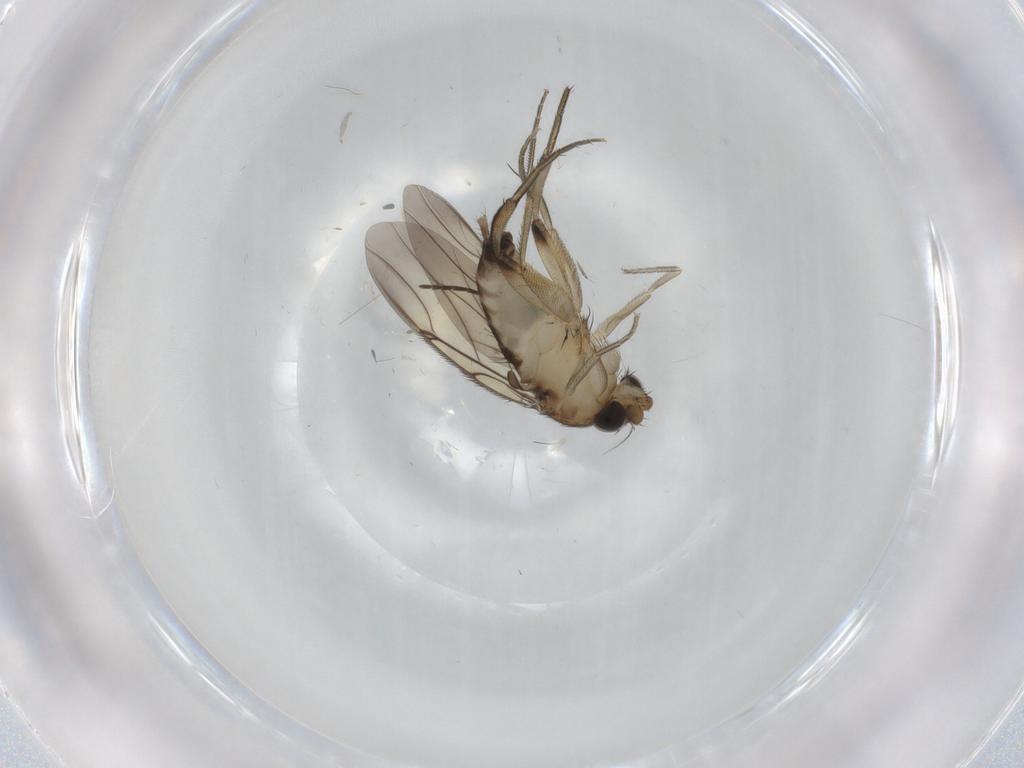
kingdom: Animalia
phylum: Arthropoda
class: Insecta
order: Diptera
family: Phoridae
